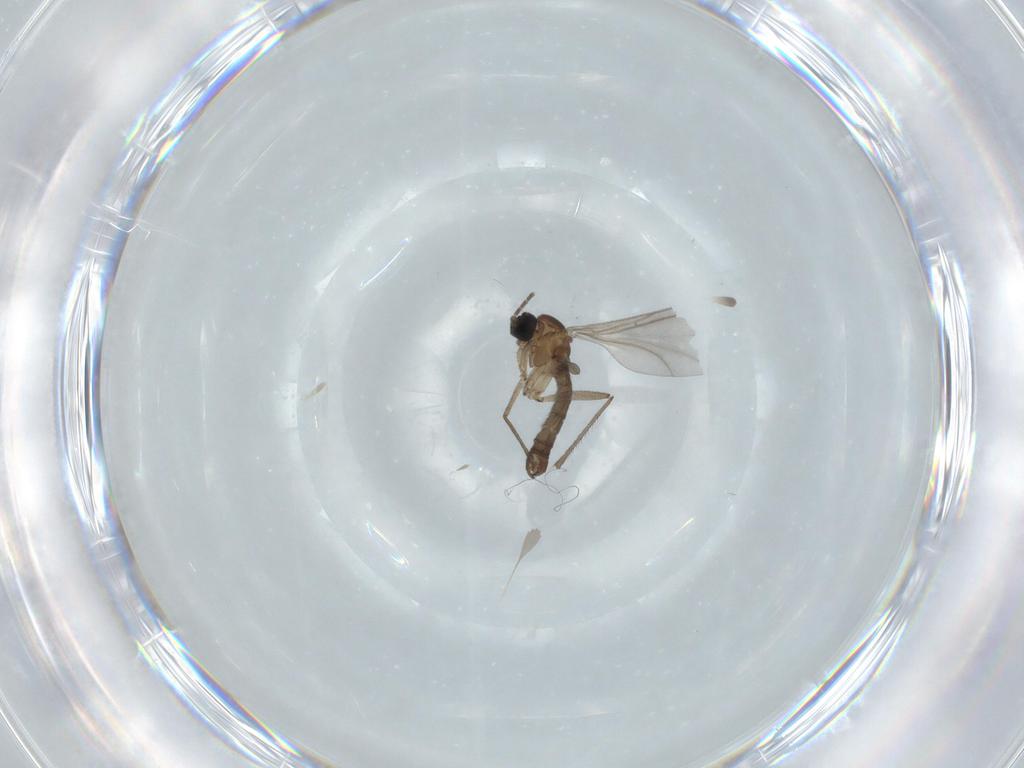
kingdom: Animalia
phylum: Arthropoda
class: Insecta
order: Diptera
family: Sciaridae
